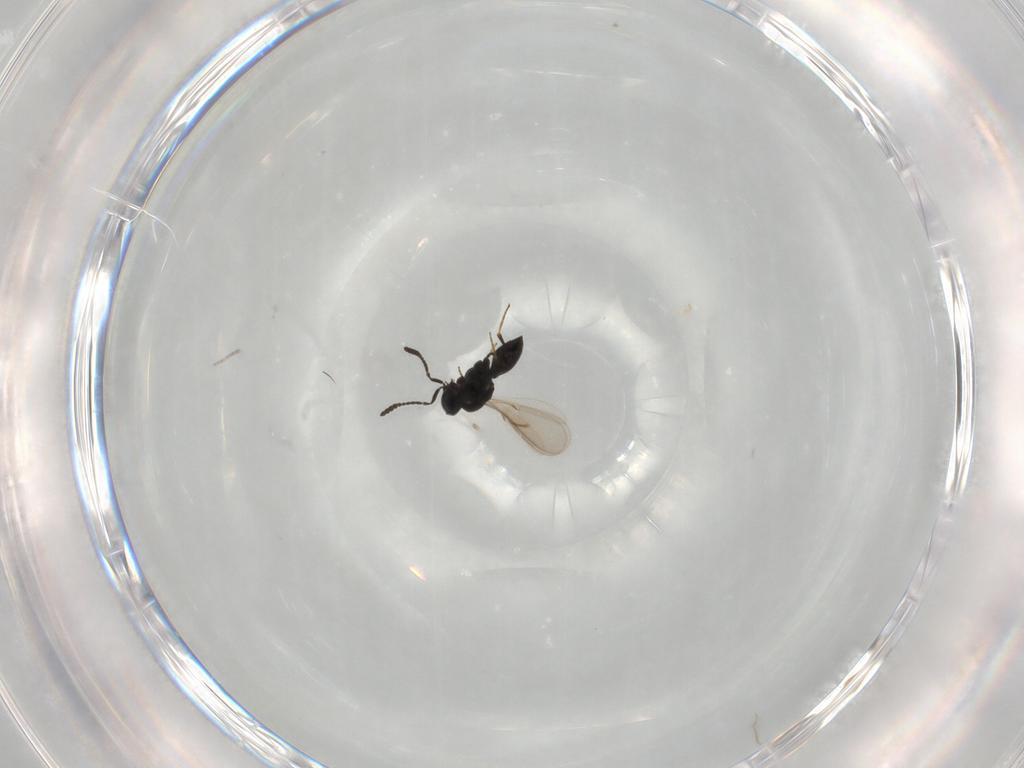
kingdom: Animalia
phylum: Arthropoda
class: Insecta
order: Hymenoptera
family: Scelionidae
